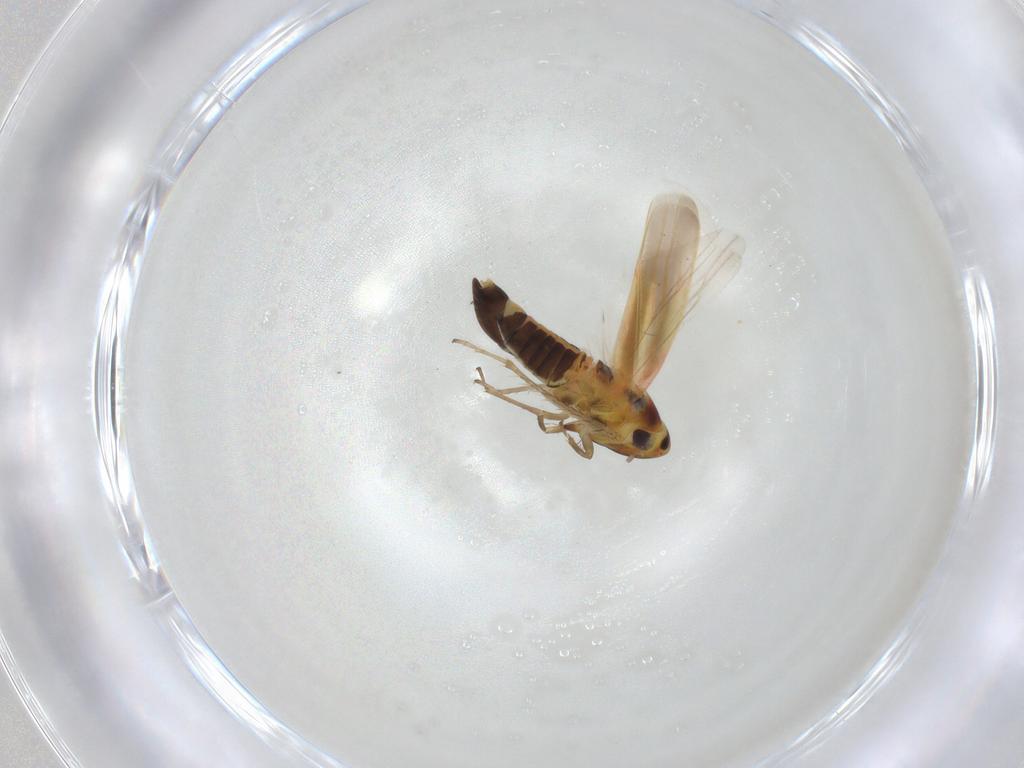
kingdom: Animalia
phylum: Arthropoda
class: Insecta
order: Hemiptera
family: Cicadellidae
